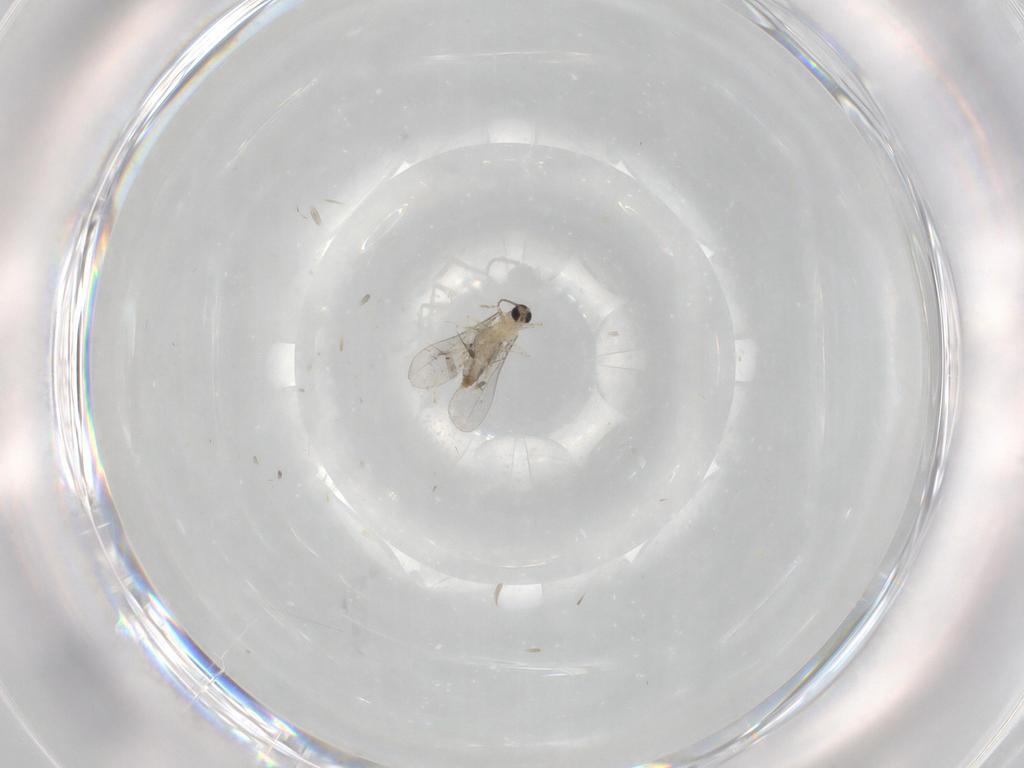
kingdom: Animalia
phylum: Arthropoda
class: Insecta
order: Diptera
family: Cecidomyiidae
